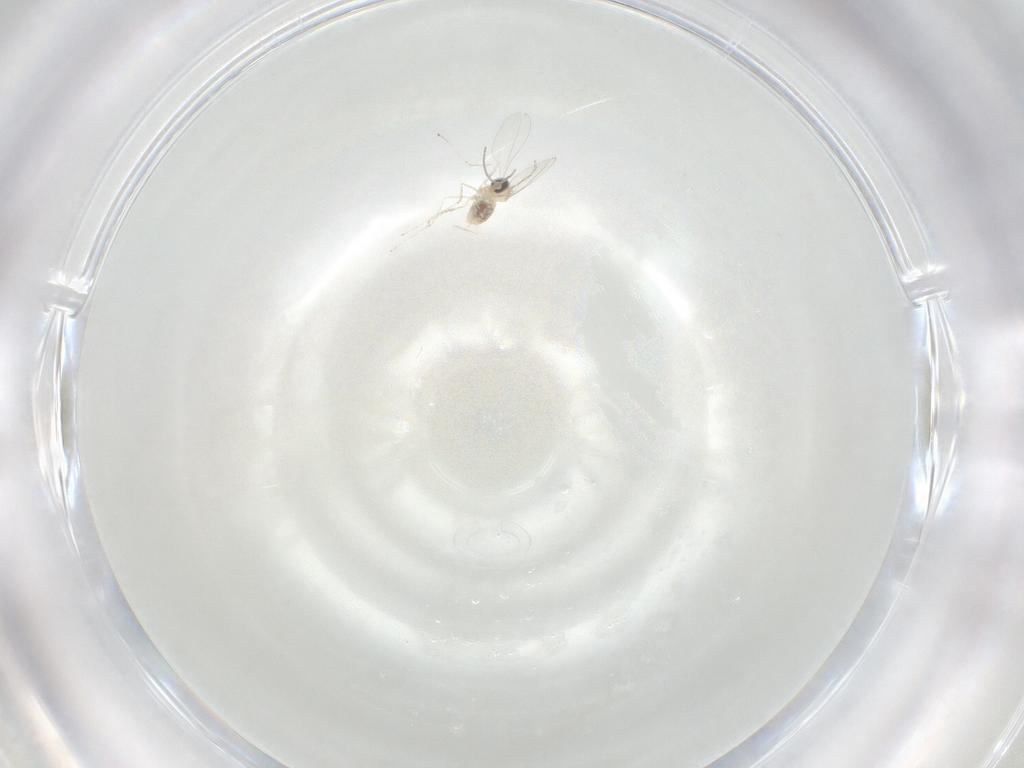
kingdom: Animalia
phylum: Arthropoda
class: Insecta
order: Diptera
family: Cecidomyiidae
